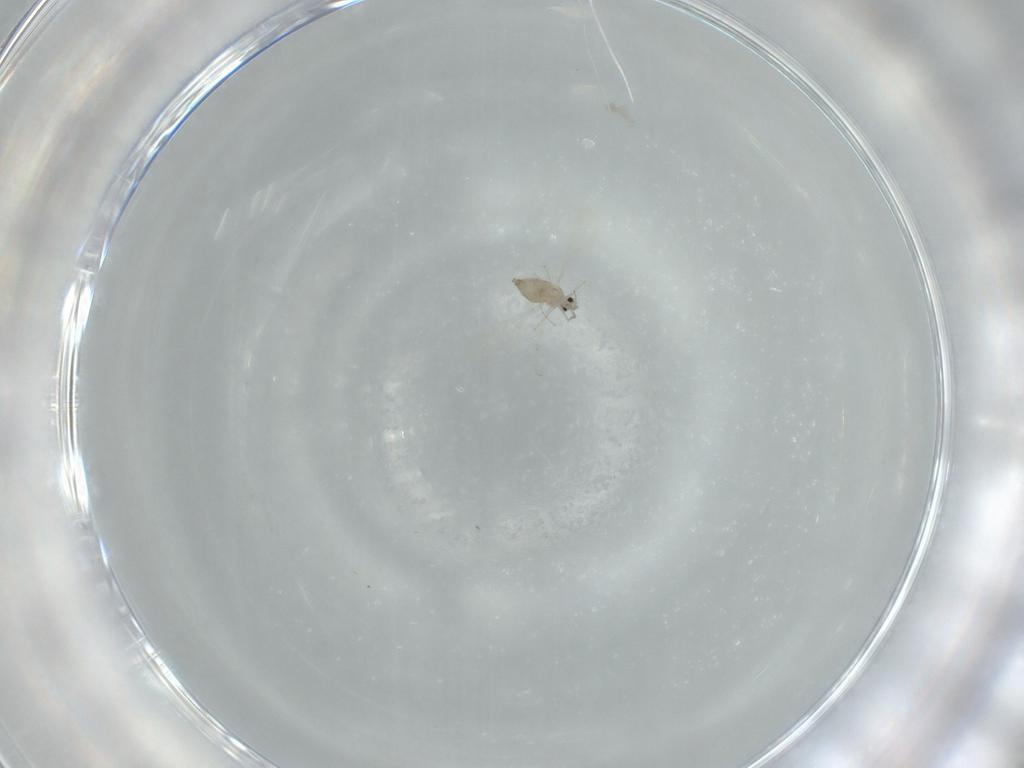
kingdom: Animalia
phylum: Arthropoda
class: Insecta
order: Diptera
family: Cecidomyiidae
